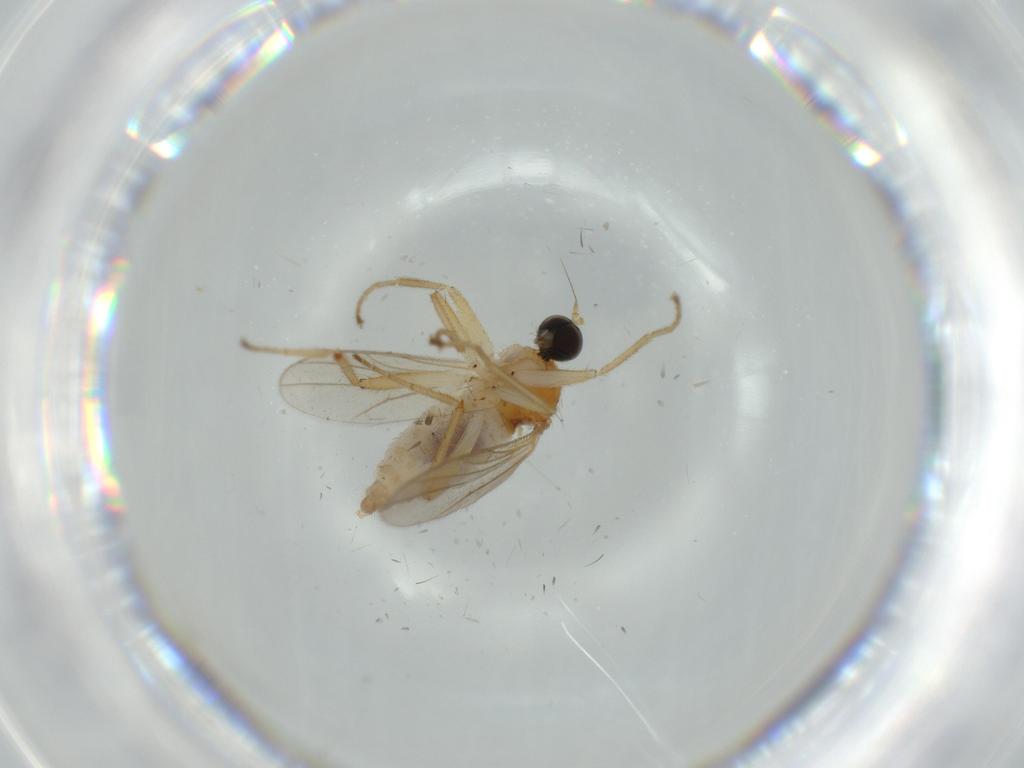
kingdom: Animalia
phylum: Arthropoda
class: Insecta
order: Diptera
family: Hybotidae
